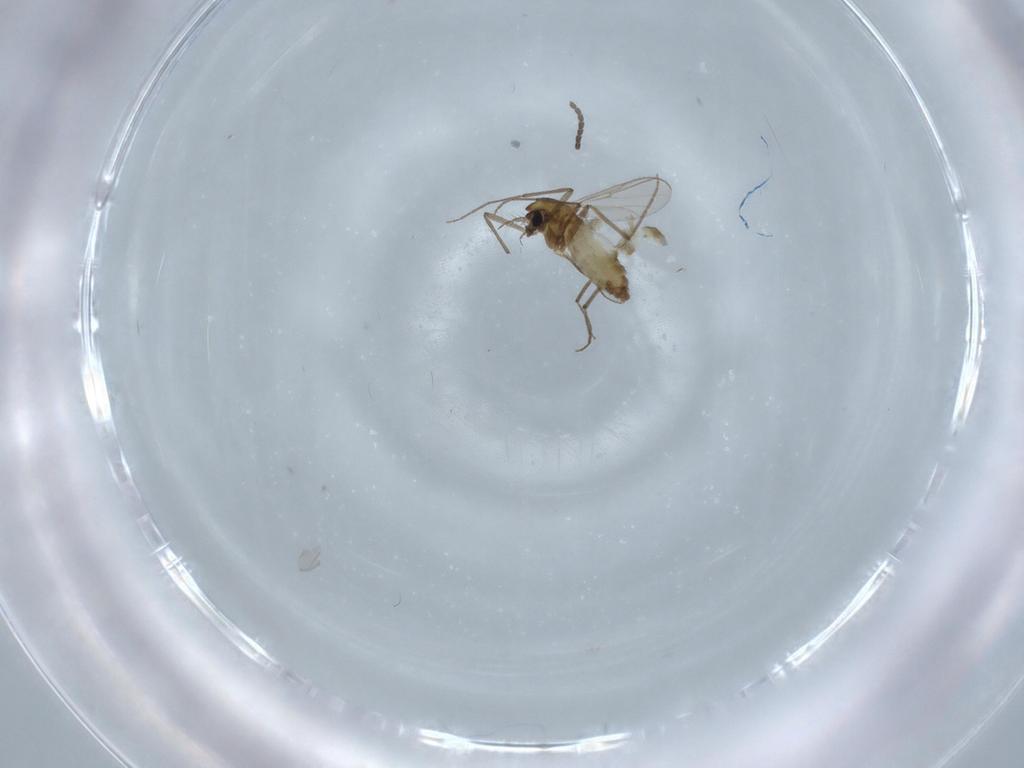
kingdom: Animalia
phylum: Arthropoda
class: Insecta
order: Diptera
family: Chironomidae
